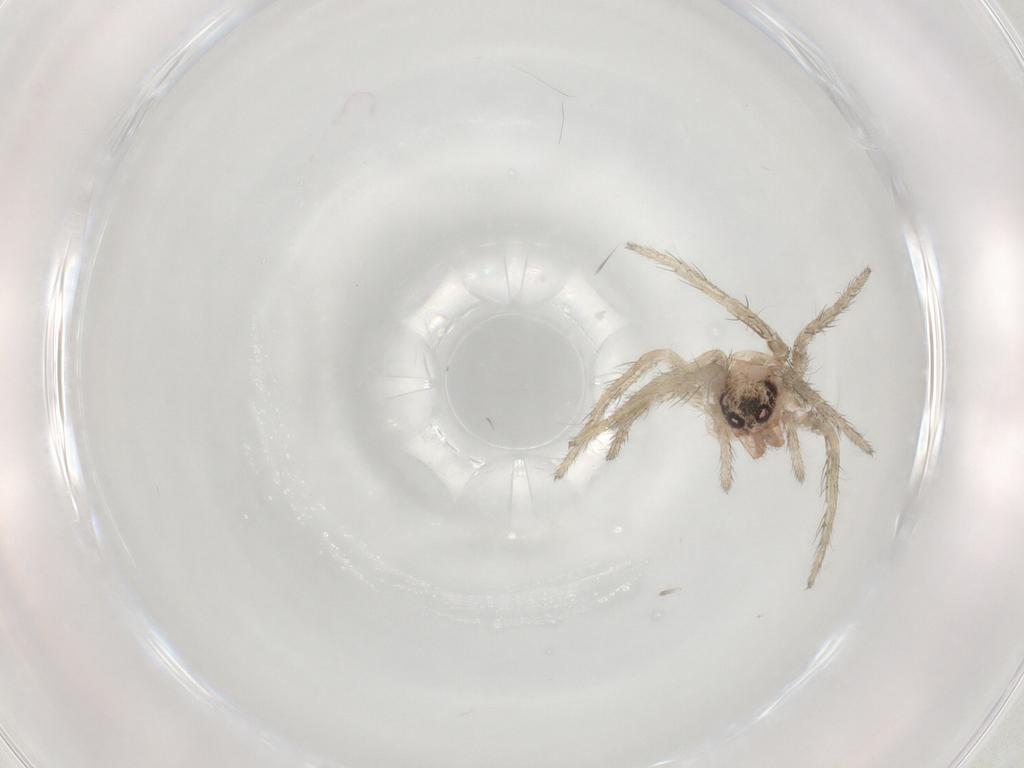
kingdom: Animalia
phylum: Arthropoda
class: Arachnida
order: Araneae
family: Lycosidae
